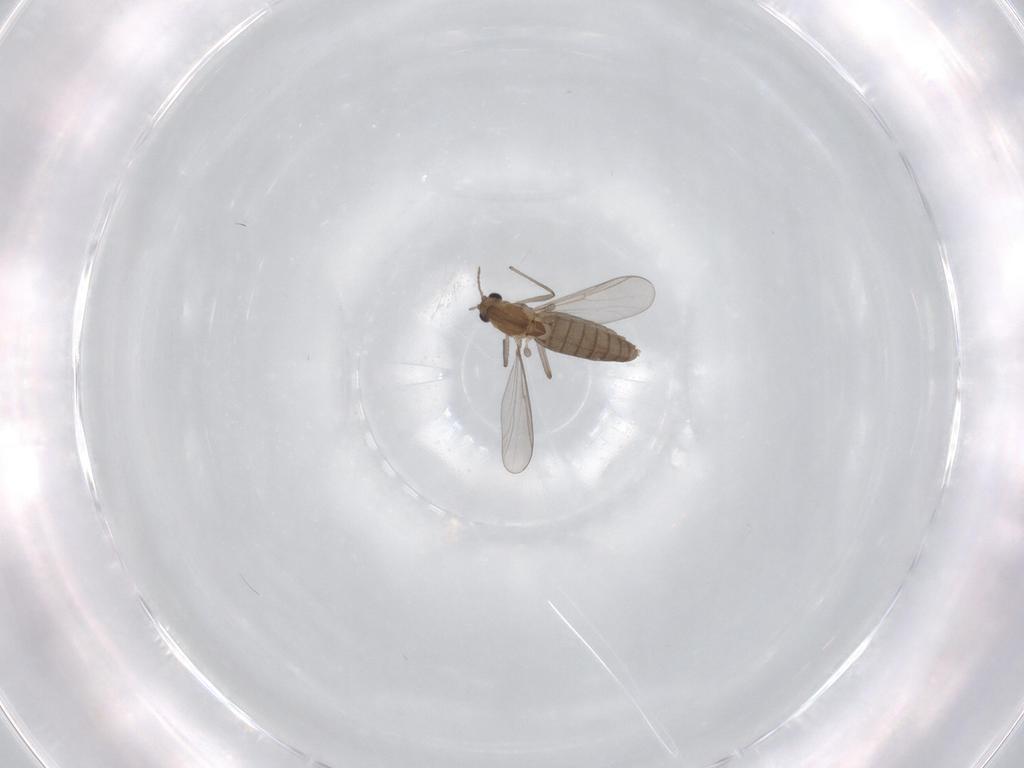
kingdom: Animalia
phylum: Arthropoda
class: Insecta
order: Diptera
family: Chironomidae
